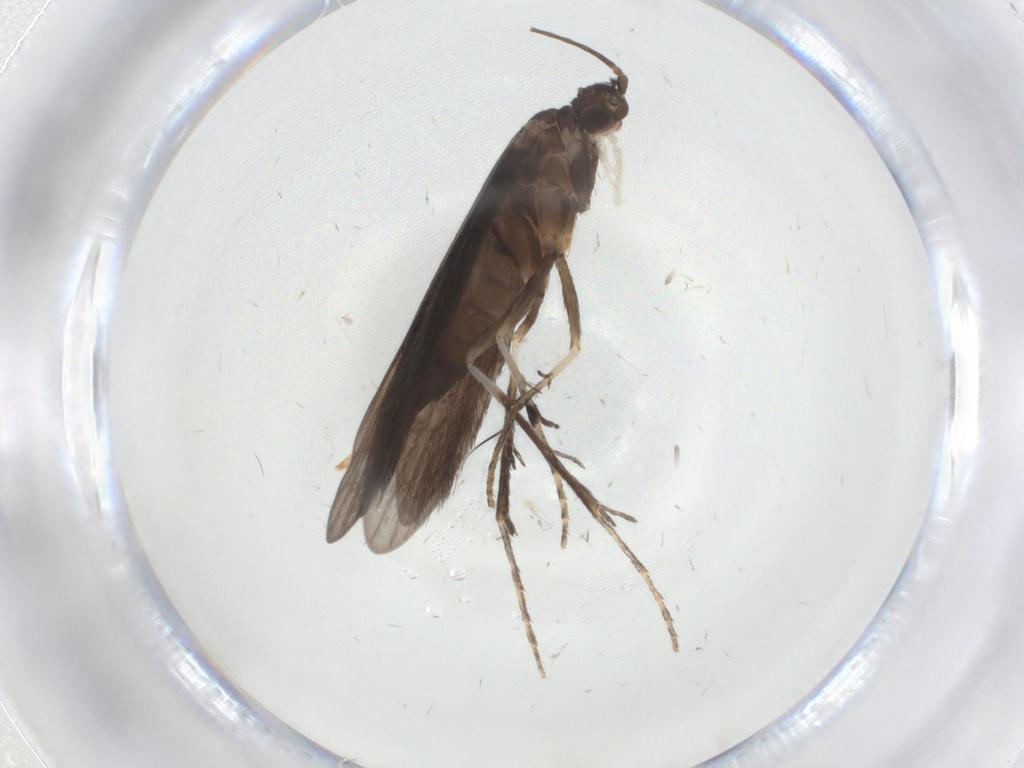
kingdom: Animalia
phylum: Arthropoda
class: Insecta
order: Trichoptera
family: Xiphocentronidae
